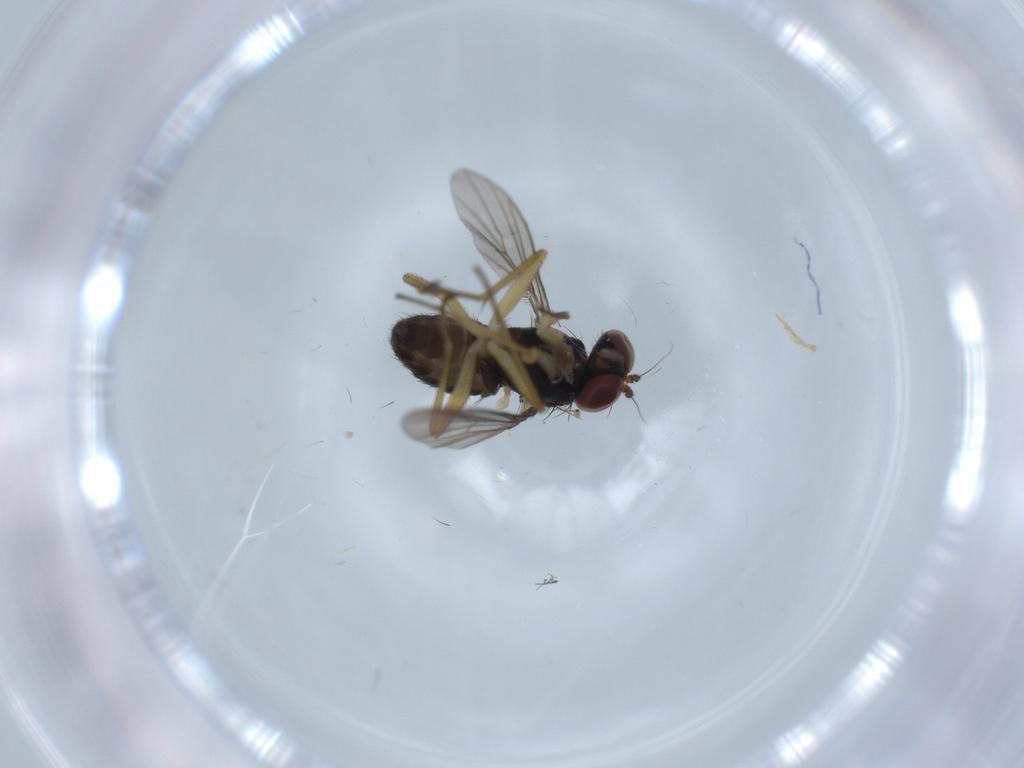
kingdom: Animalia
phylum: Arthropoda
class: Insecta
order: Diptera
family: Dolichopodidae
